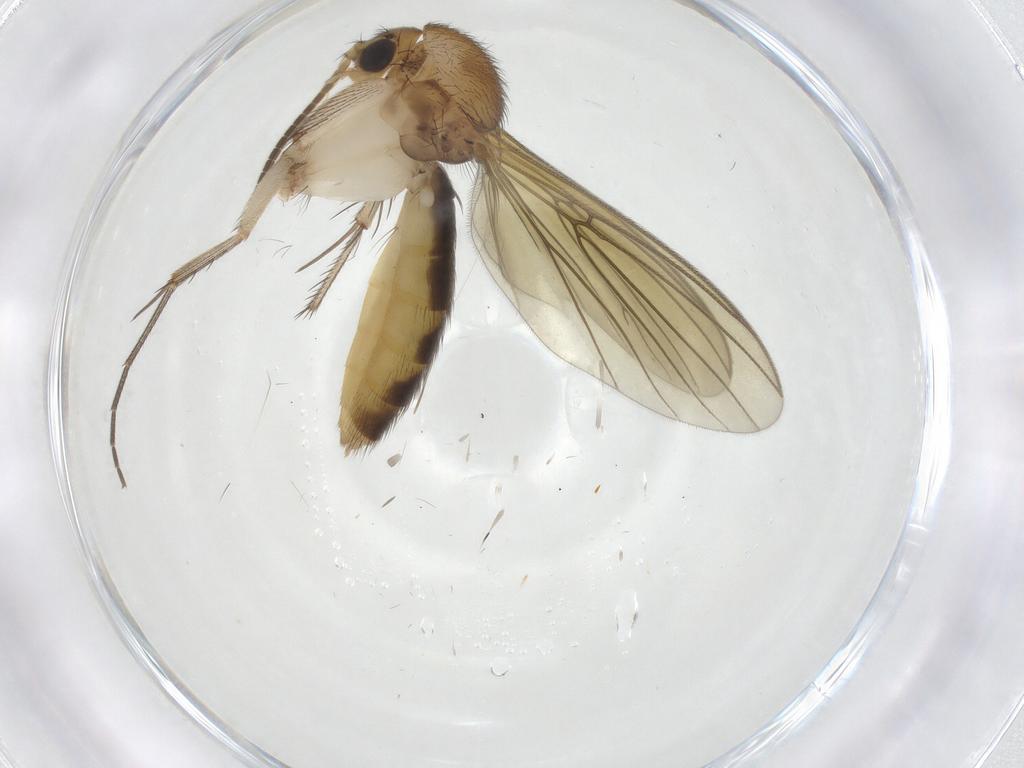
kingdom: Animalia
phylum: Arthropoda
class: Insecta
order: Diptera
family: Mycetophilidae
